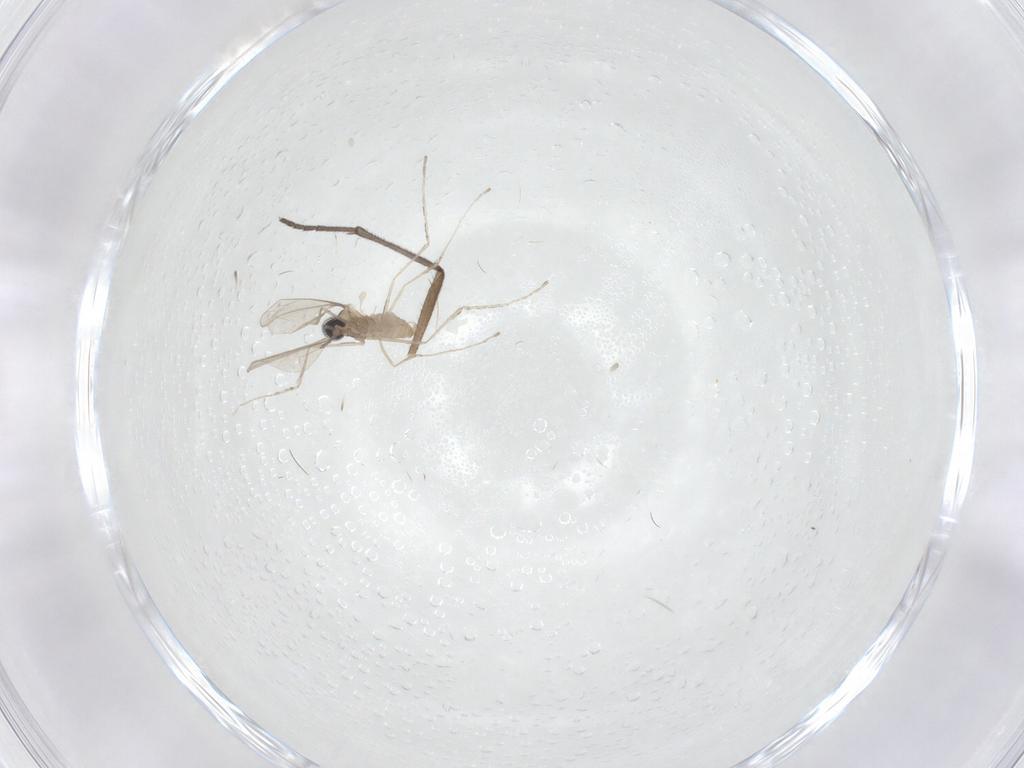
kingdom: Animalia
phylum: Arthropoda
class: Insecta
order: Diptera
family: Sciaridae
